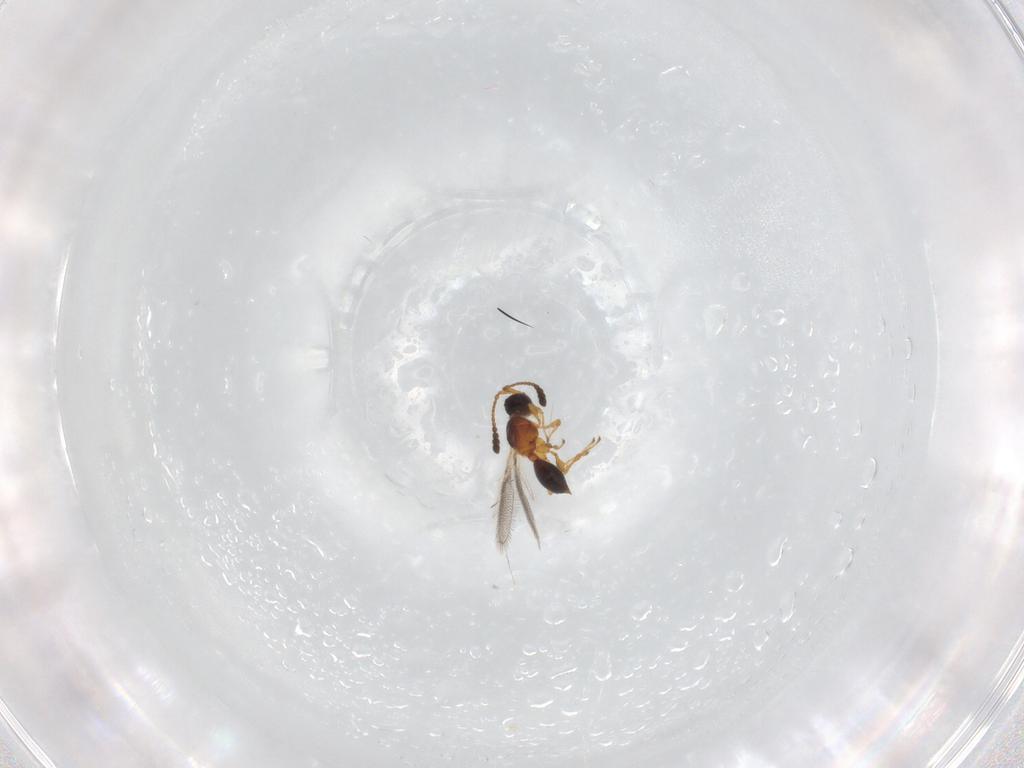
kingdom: Animalia
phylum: Arthropoda
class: Insecta
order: Hymenoptera
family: Diapriidae
